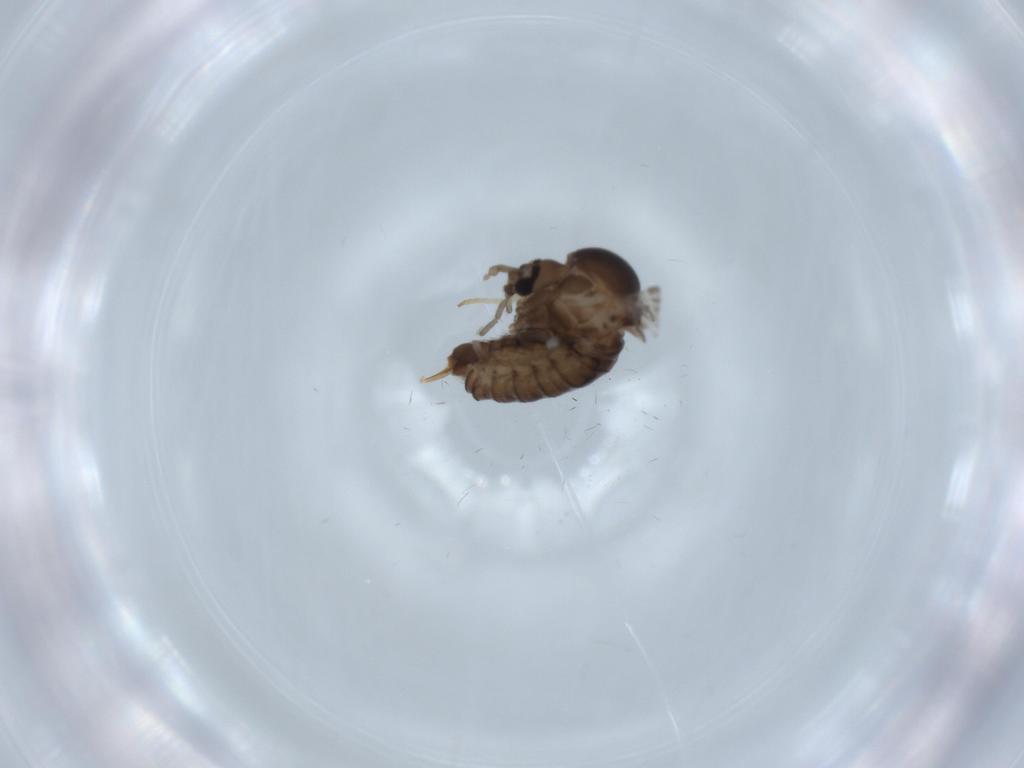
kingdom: Animalia
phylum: Arthropoda
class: Insecta
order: Diptera
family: Psychodidae
